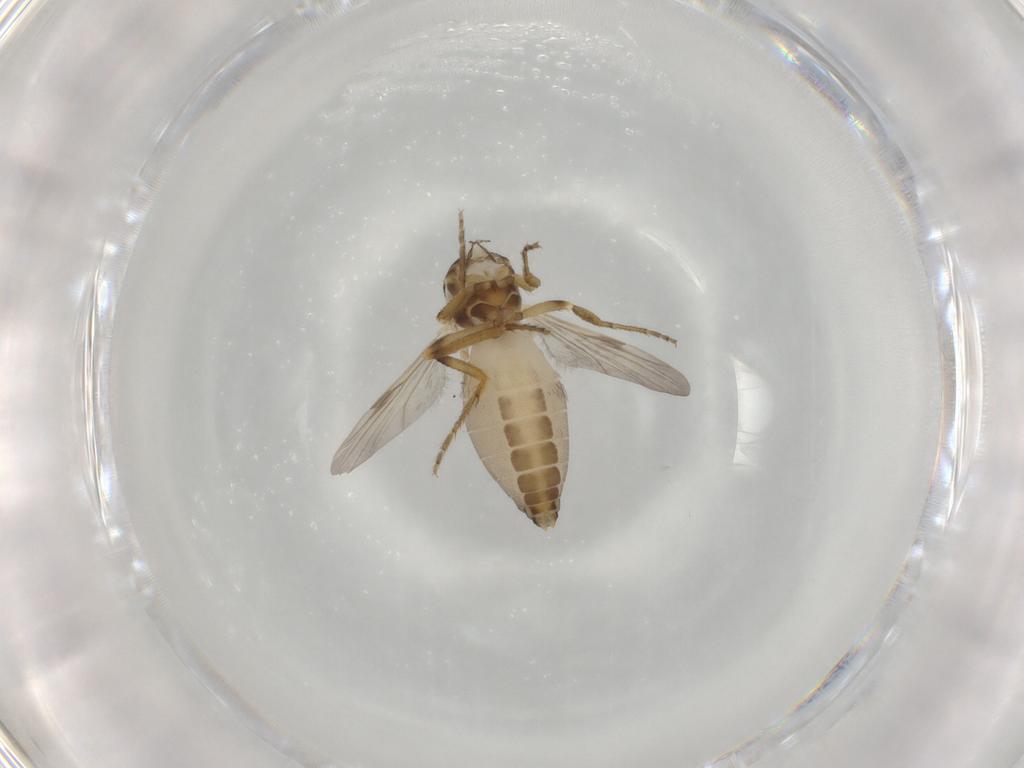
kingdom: Animalia
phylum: Arthropoda
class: Insecta
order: Diptera
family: Ceratopogonidae
